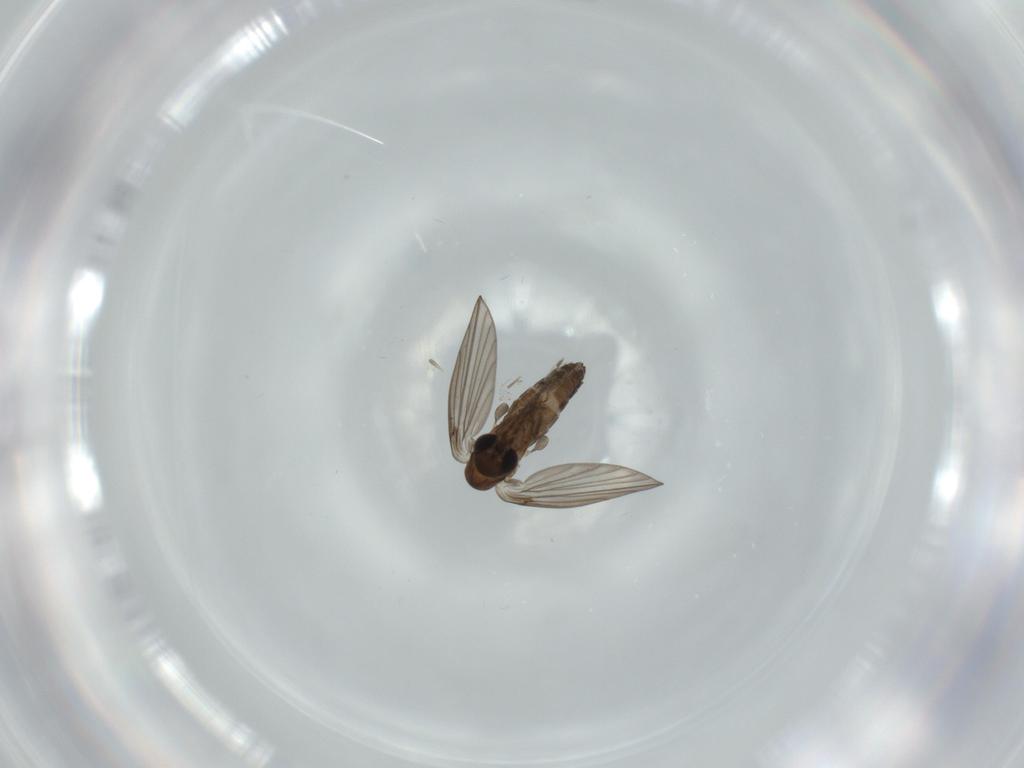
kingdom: Animalia
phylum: Arthropoda
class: Insecta
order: Diptera
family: Psychodidae
